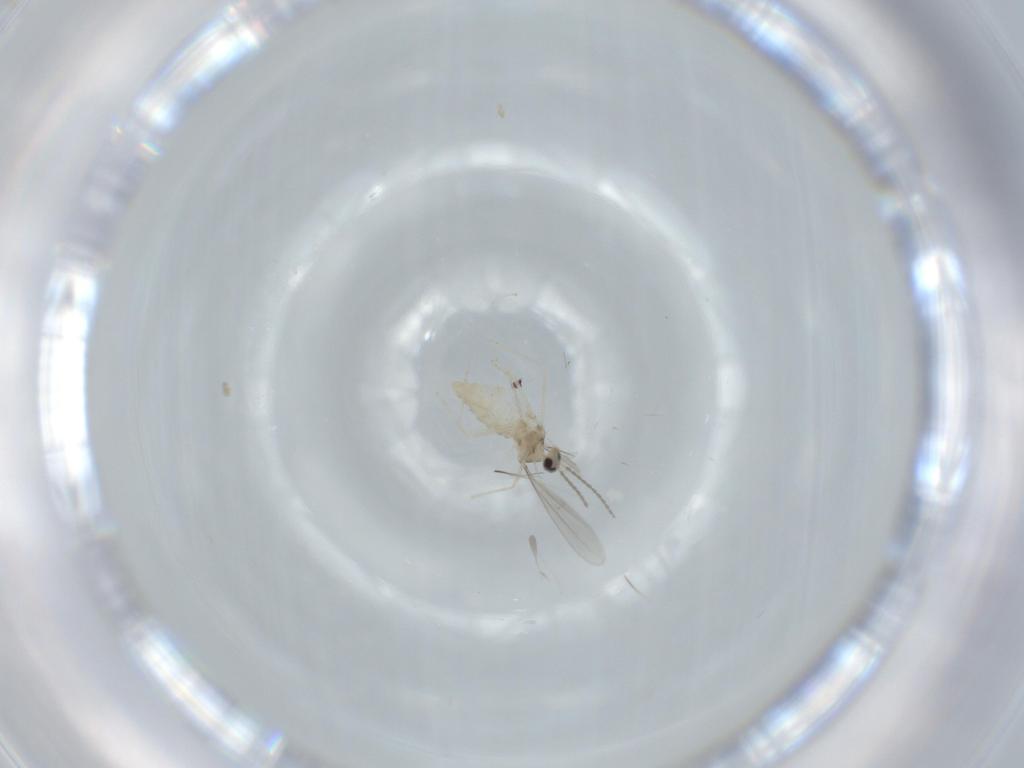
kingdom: Animalia
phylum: Arthropoda
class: Insecta
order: Diptera
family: Cecidomyiidae
